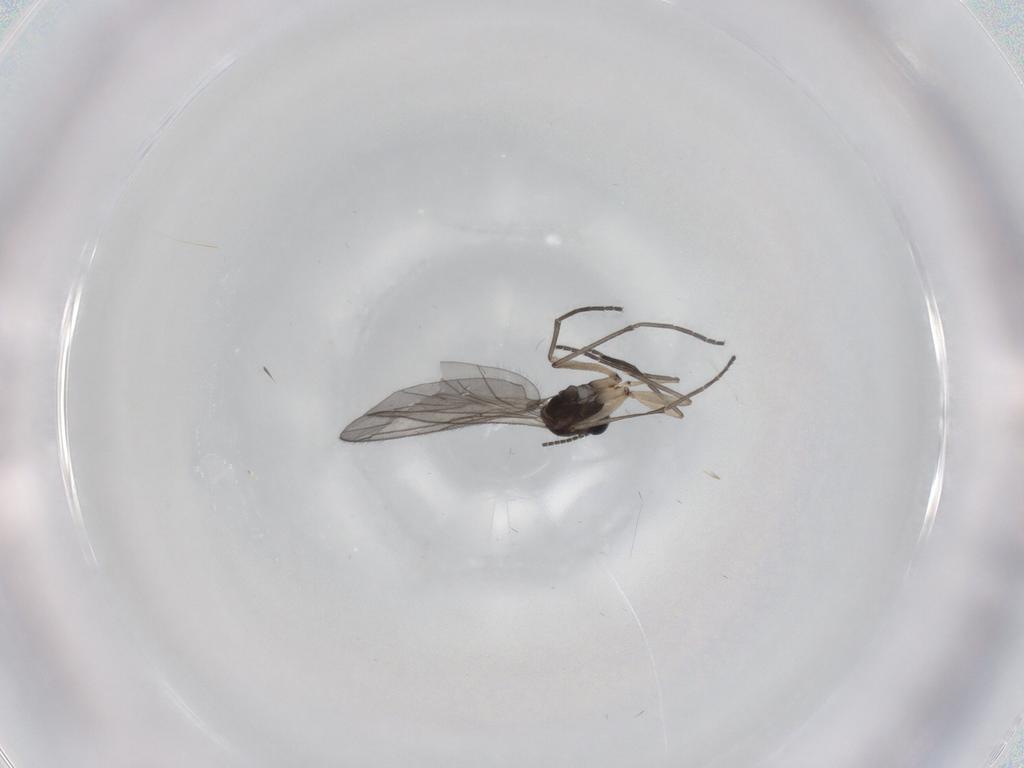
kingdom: Animalia
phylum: Arthropoda
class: Insecta
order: Diptera
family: Sciaridae
